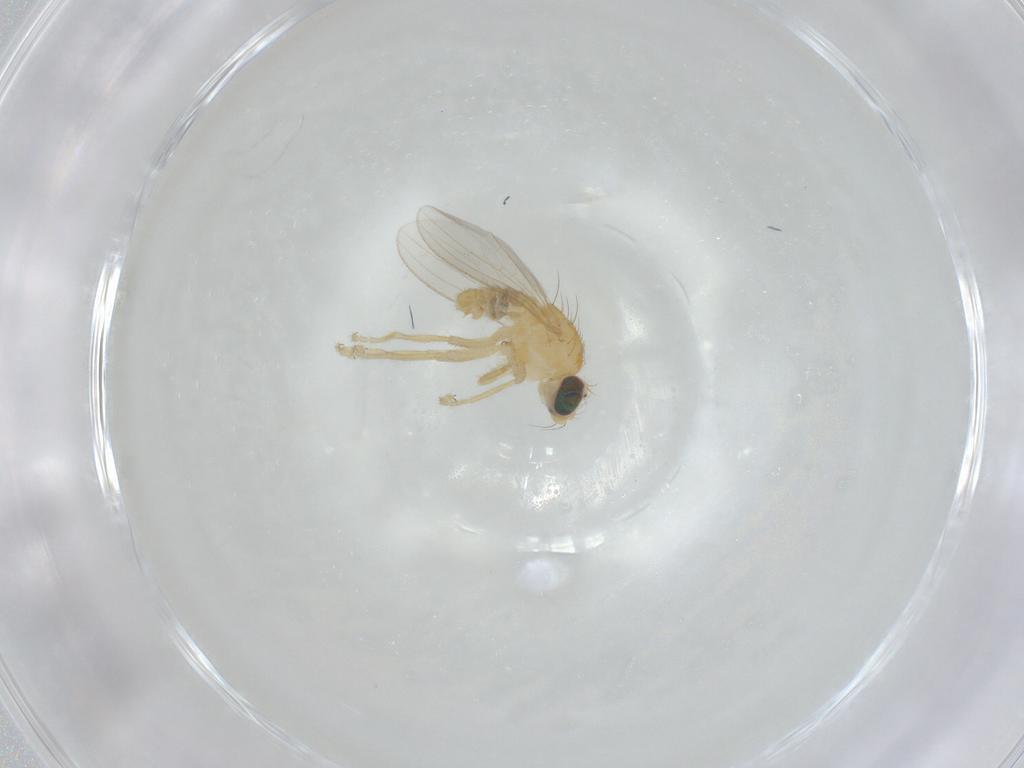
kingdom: Animalia
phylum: Arthropoda
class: Insecta
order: Diptera
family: Chyromyidae
